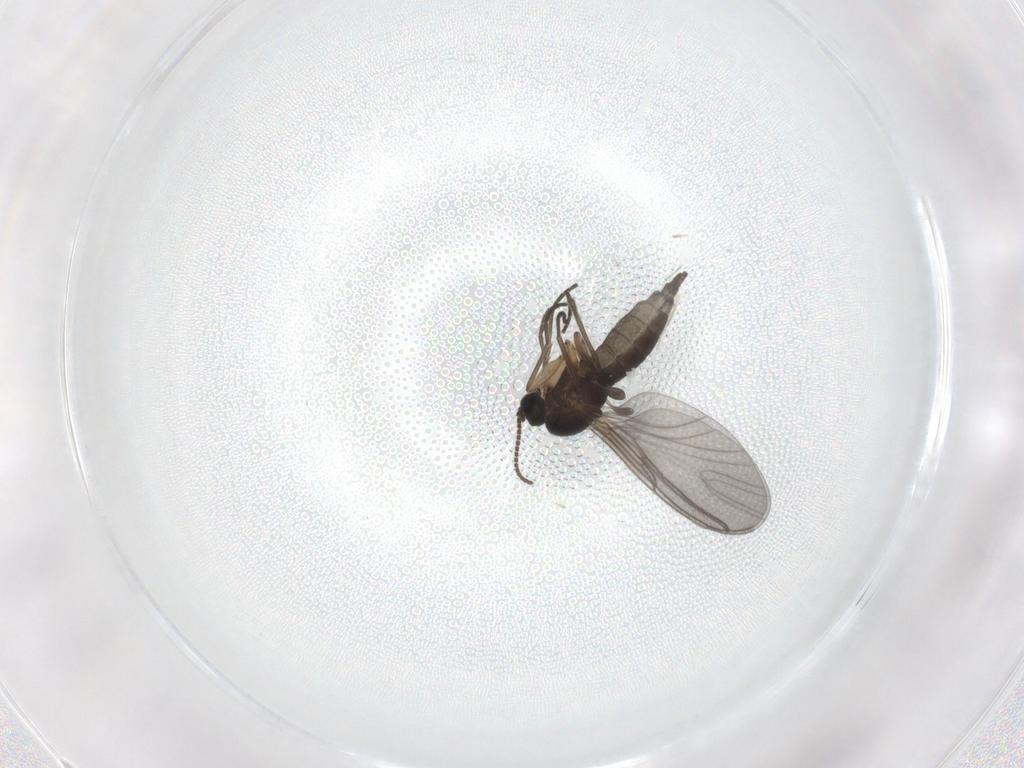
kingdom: Animalia
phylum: Arthropoda
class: Insecta
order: Diptera
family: Sciaridae
